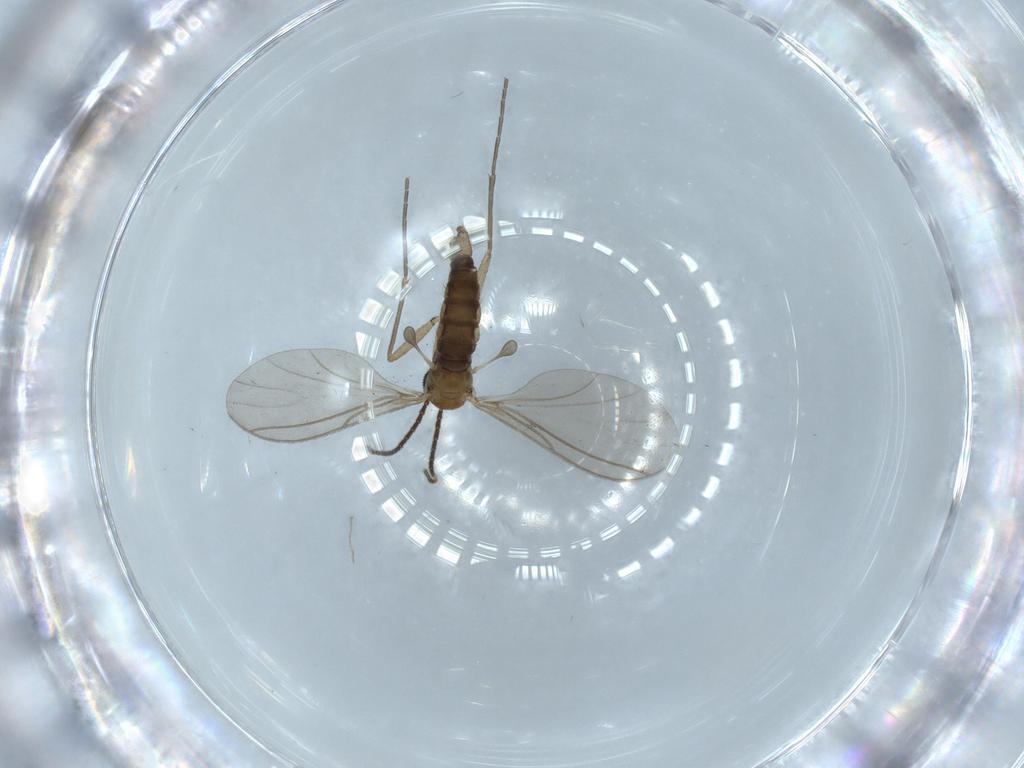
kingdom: Animalia
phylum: Arthropoda
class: Insecta
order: Diptera
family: Sciaridae
